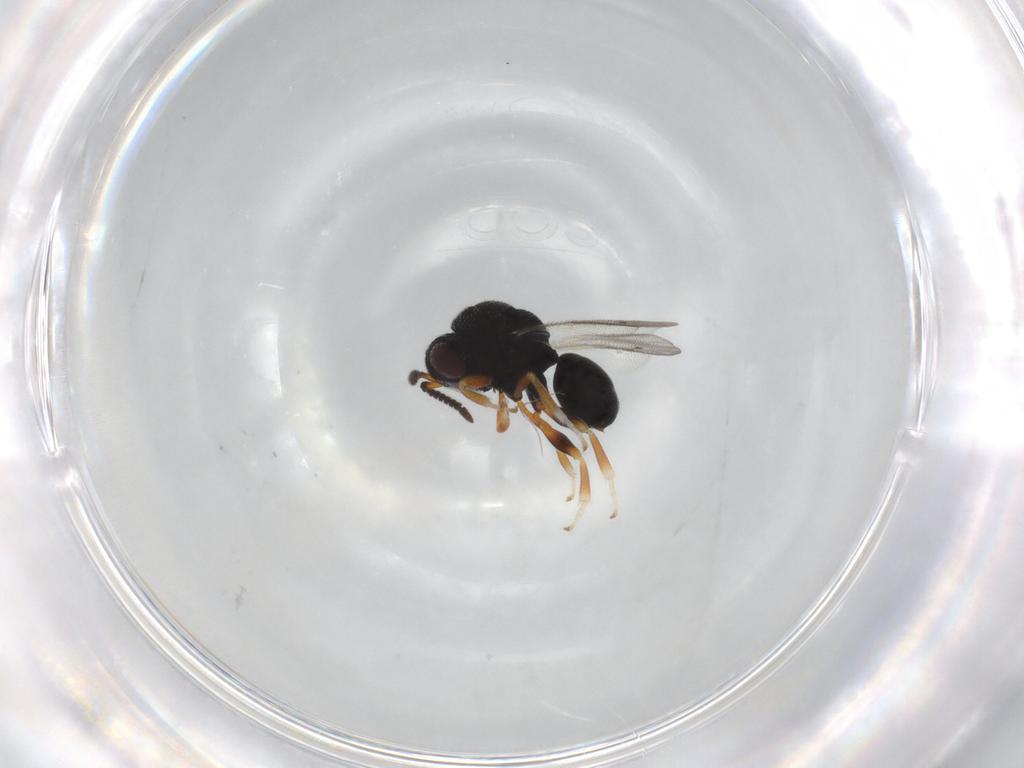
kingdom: Animalia
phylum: Arthropoda
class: Insecta
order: Hymenoptera
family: Eurytomidae
